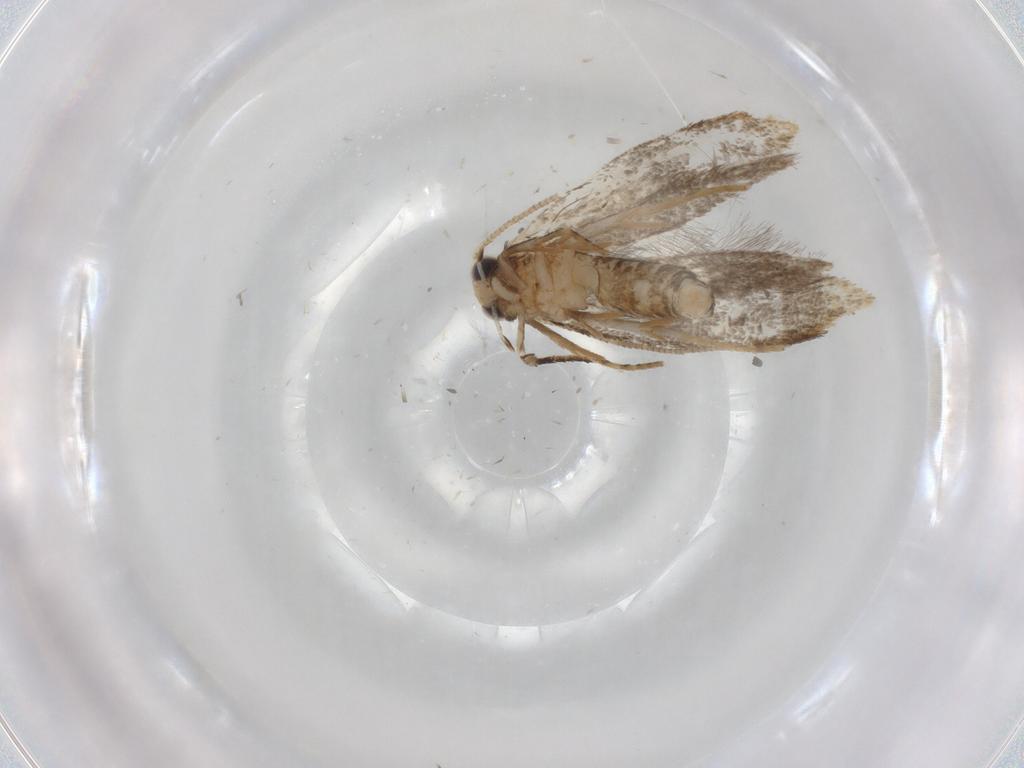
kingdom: Animalia
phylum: Arthropoda
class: Insecta
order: Lepidoptera
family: Tineidae
